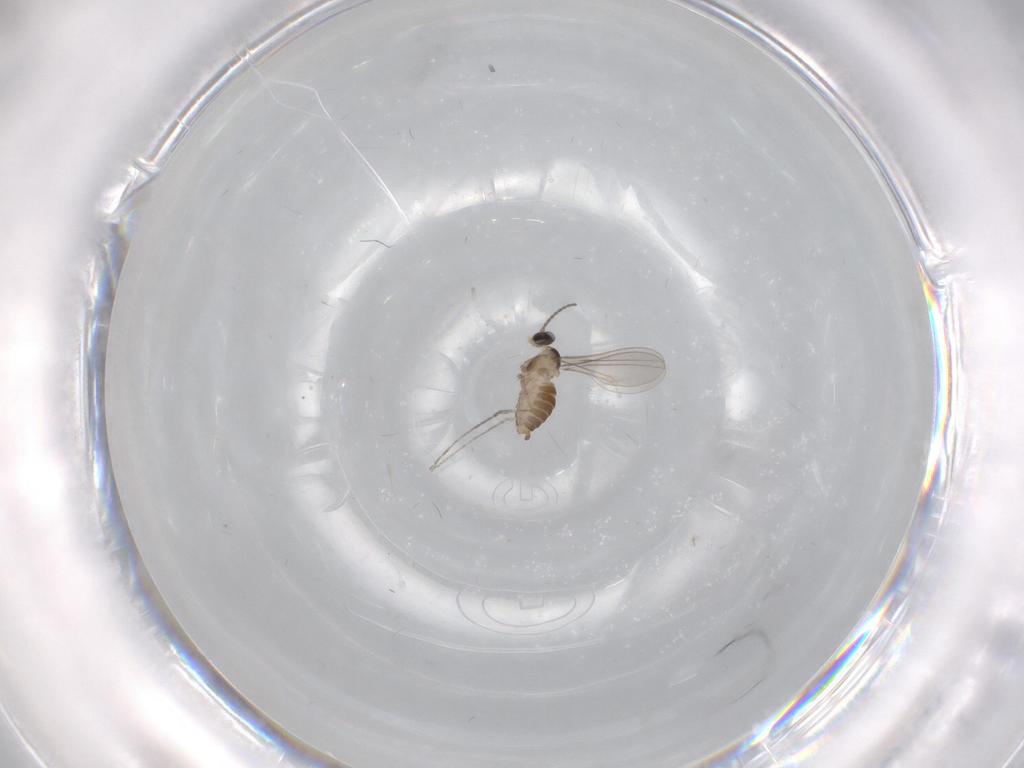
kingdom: Animalia
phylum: Arthropoda
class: Insecta
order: Diptera
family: Cecidomyiidae
